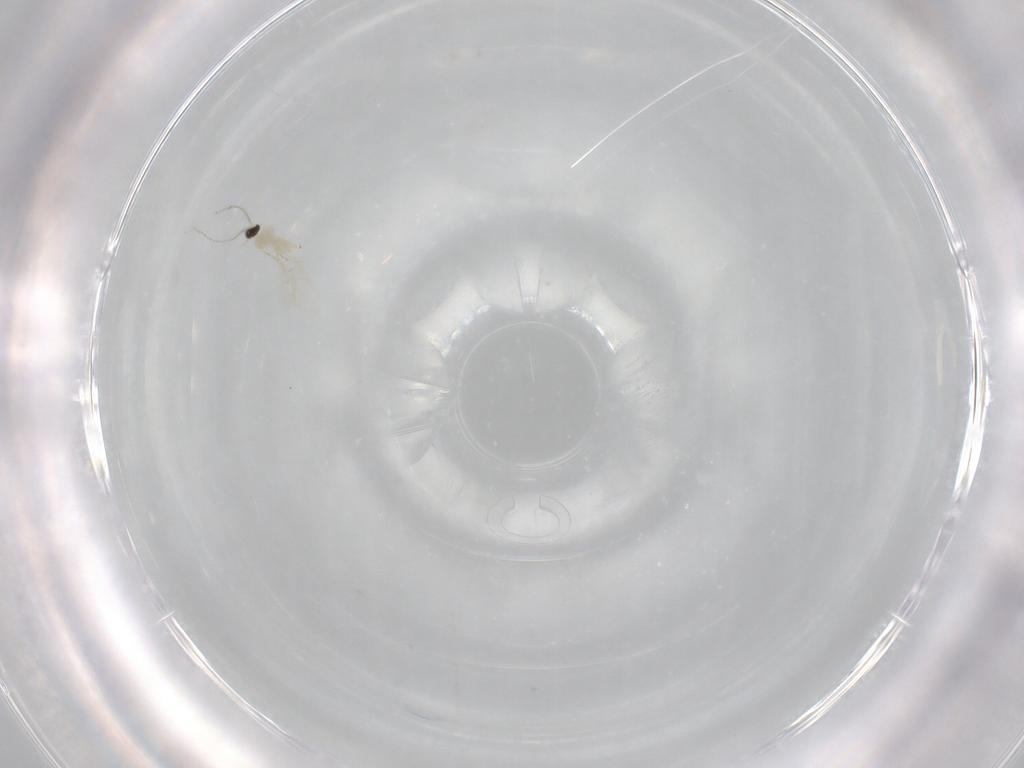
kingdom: Animalia
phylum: Arthropoda
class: Insecta
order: Diptera
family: Cecidomyiidae
